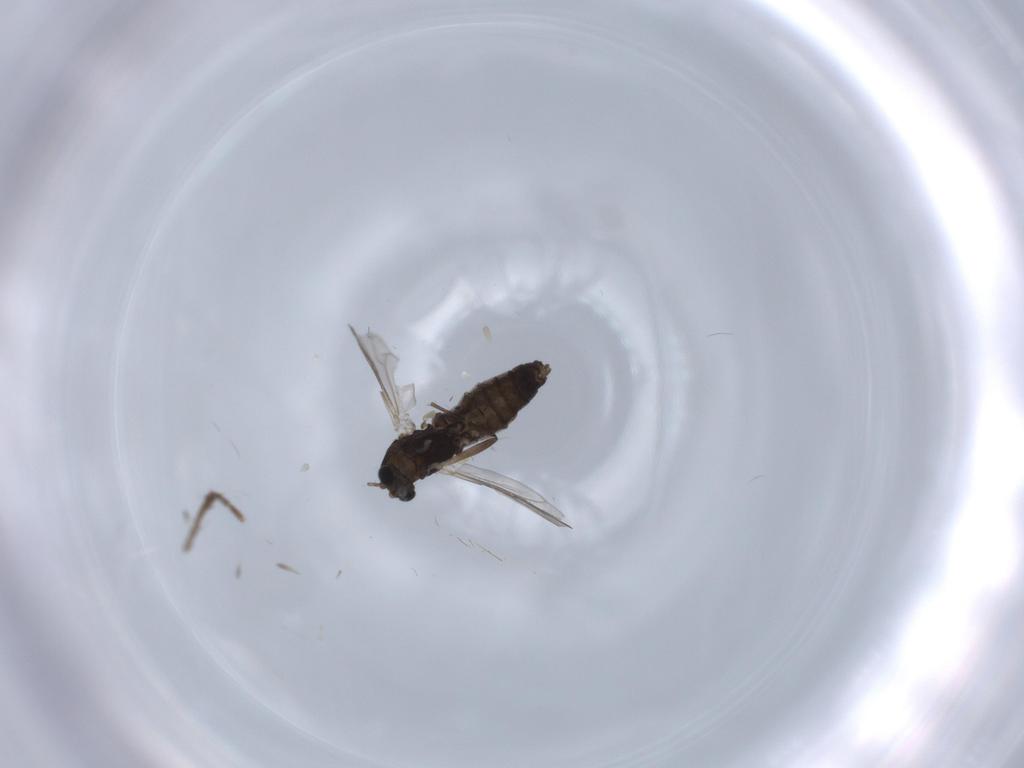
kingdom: Animalia
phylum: Arthropoda
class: Insecta
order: Diptera
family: Chironomidae
